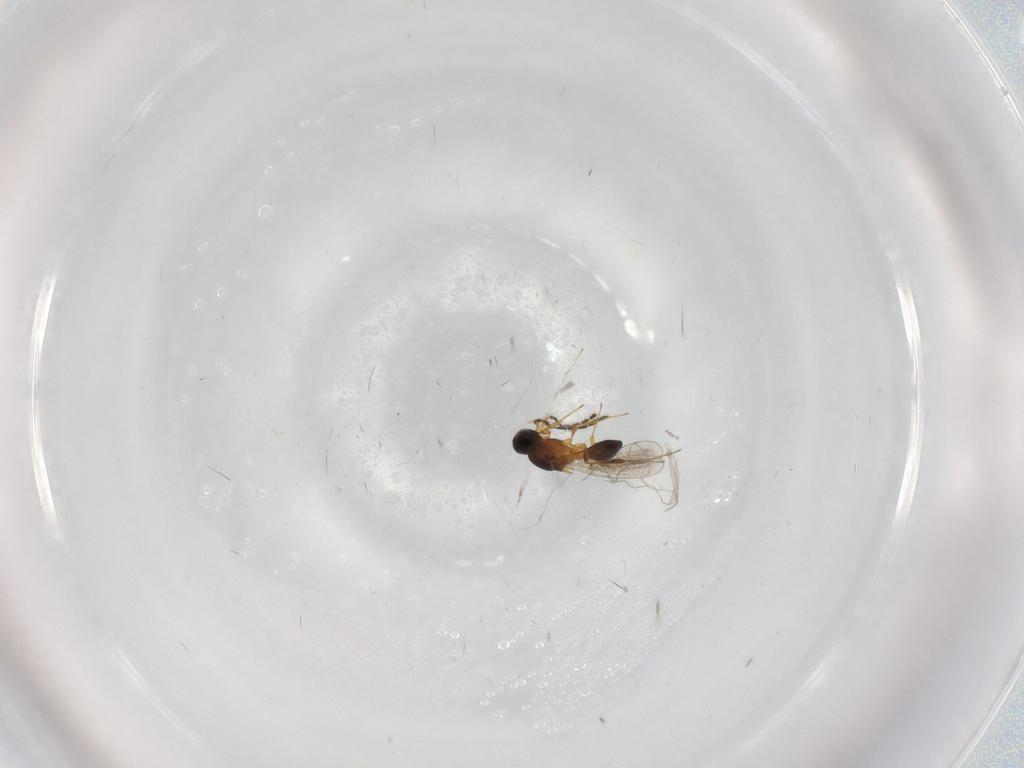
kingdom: Animalia
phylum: Arthropoda
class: Insecta
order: Hymenoptera
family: Platygastridae
